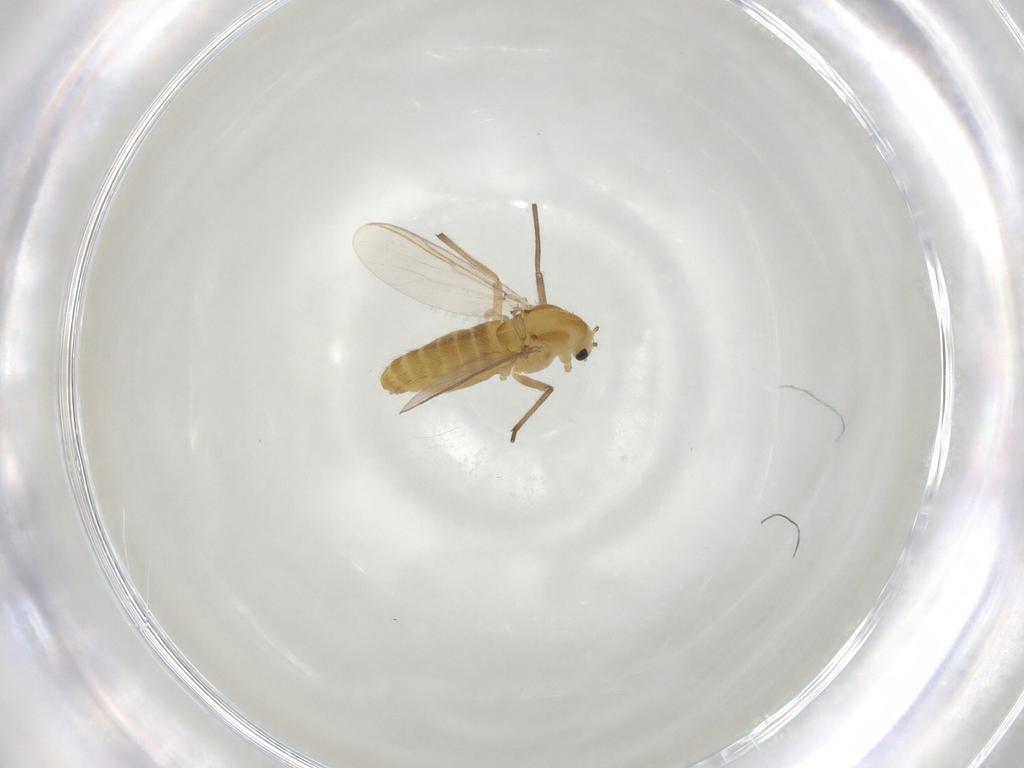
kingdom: Animalia
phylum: Arthropoda
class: Insecta
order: Diptera
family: Chironomidae
